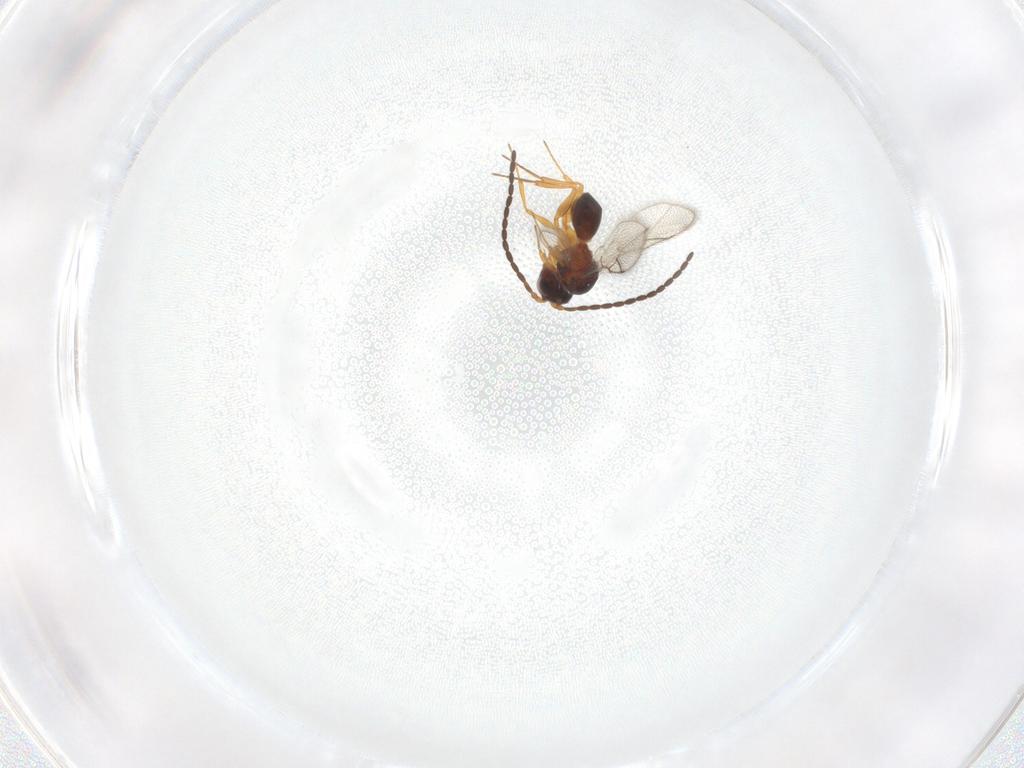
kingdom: Animalia
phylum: Arthropoda
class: Insecta
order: Hymenoptera
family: Figitidae
